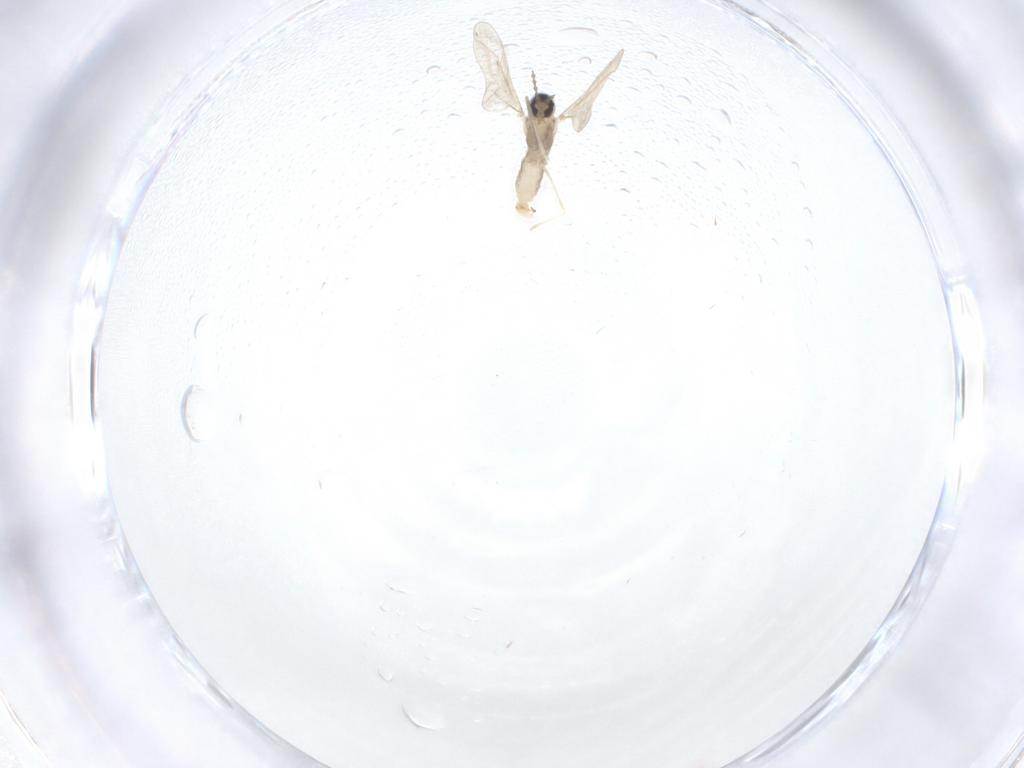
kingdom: Animalia
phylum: Arthropoda
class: Insecta
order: Diptera
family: Cecidomyiidae
